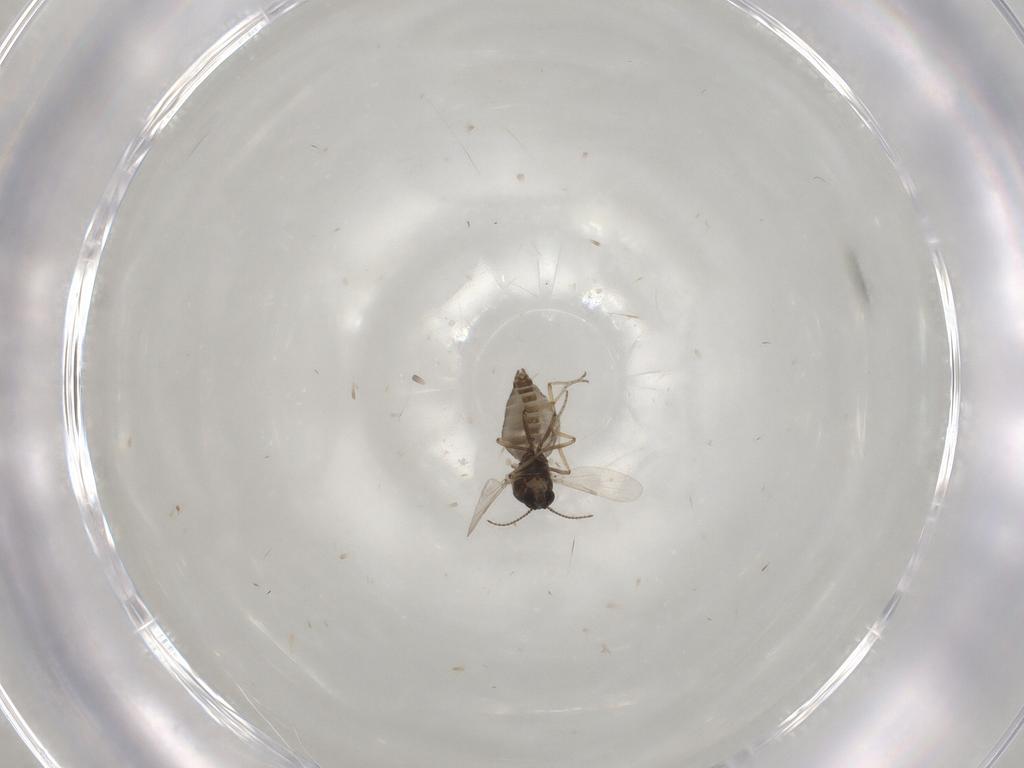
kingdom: Animalia
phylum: Arthropoda
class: Insecta
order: Diptera
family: Ceratopogonidae
